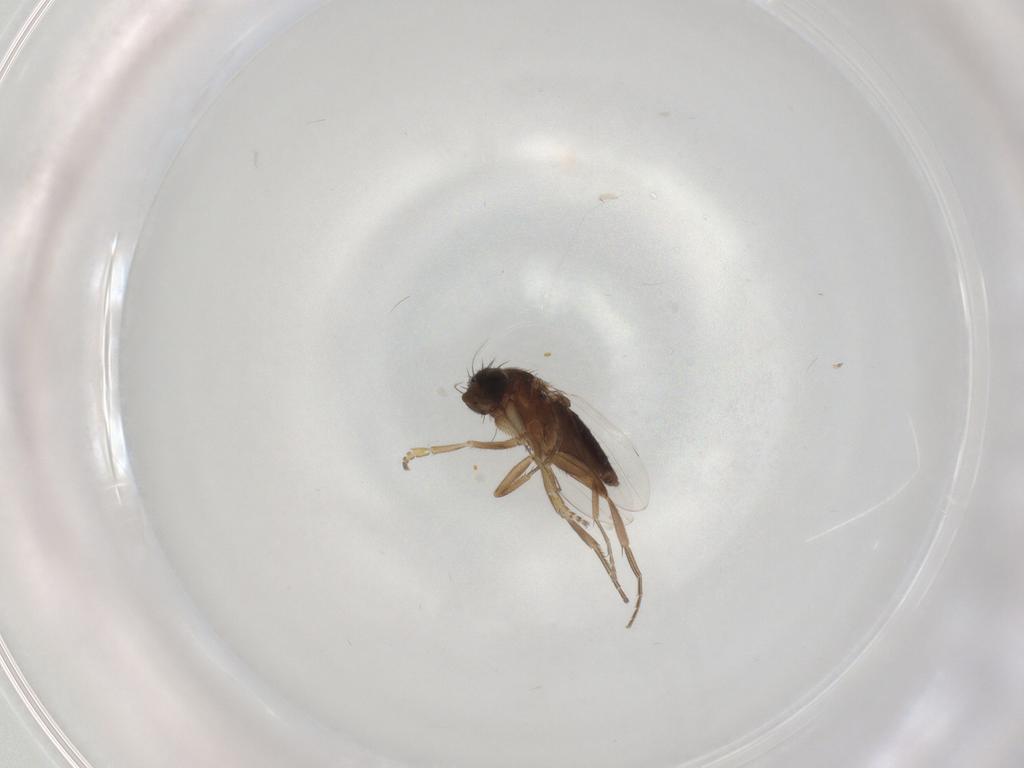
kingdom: Animalia
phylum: Arthropoda
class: Insecta
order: Diptera
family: Phoridae
